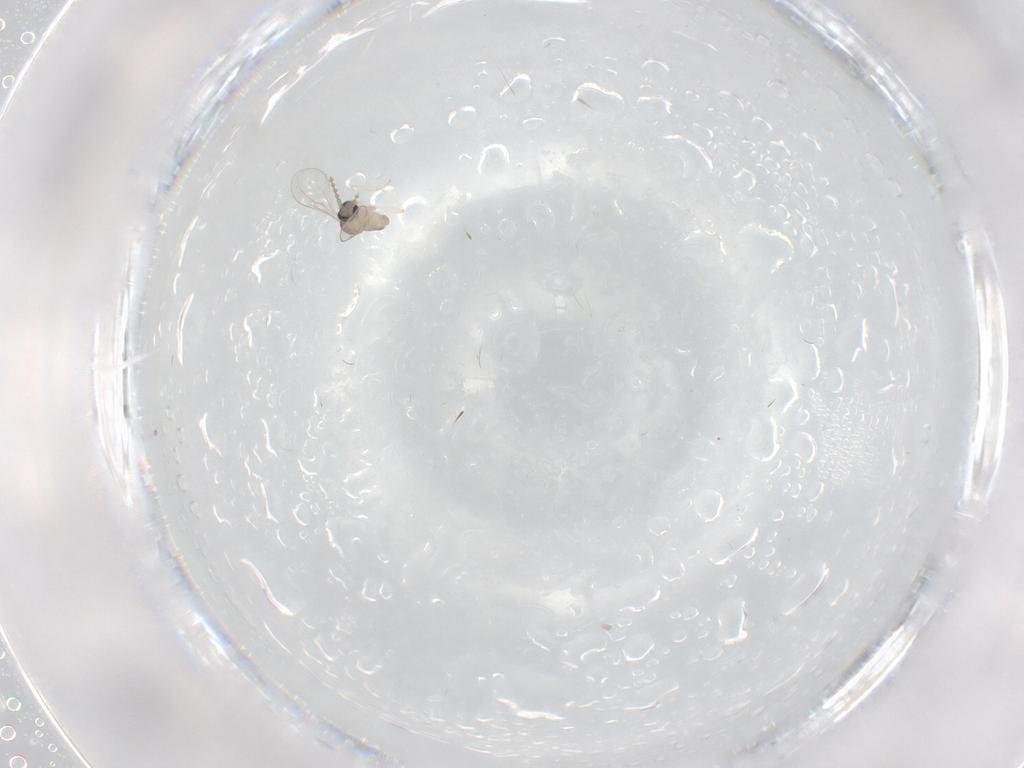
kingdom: Animalia
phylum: Arthropoda
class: Insecta
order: Diptera
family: Cecidomyiidae
